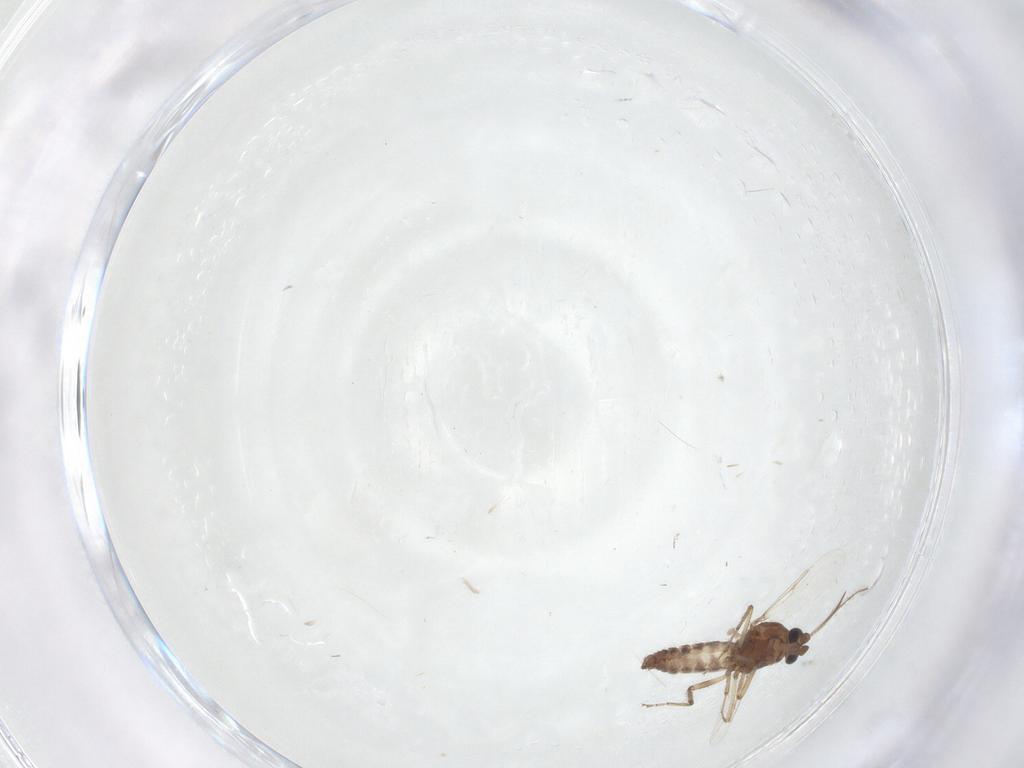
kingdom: Animalia
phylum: Arthropoda
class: Insecta
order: Diptera
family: Ceratopogonidae
